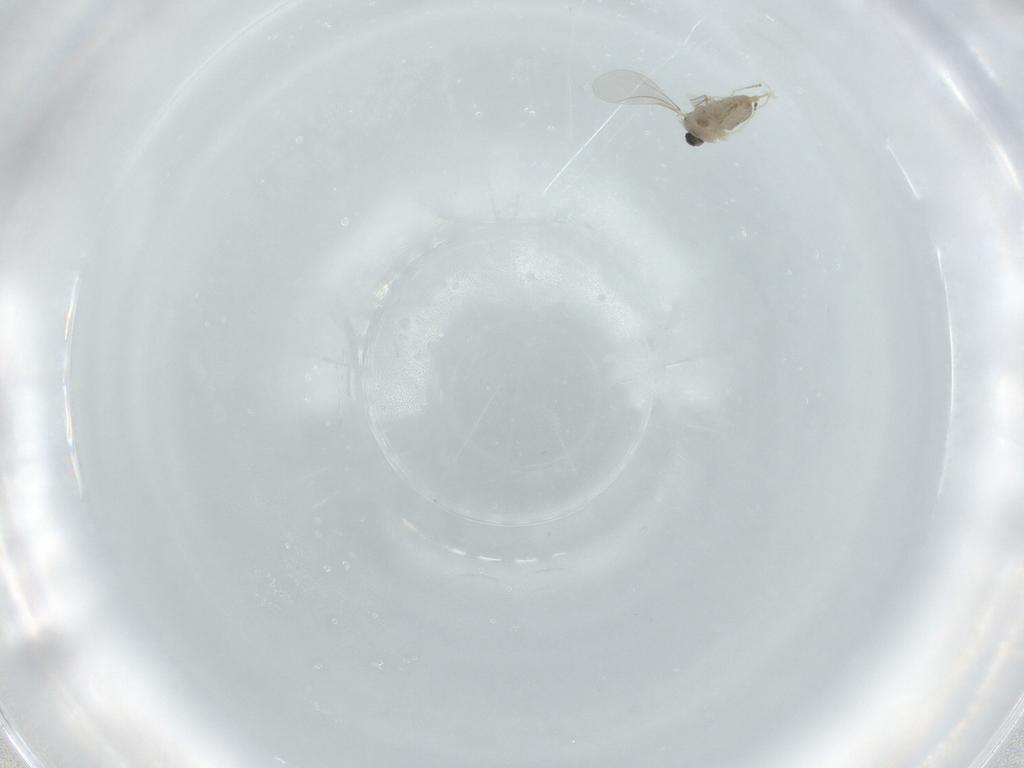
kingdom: Animalia
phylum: Arthropoda
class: Insecta
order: Diptera
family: Cecidomyiidae
